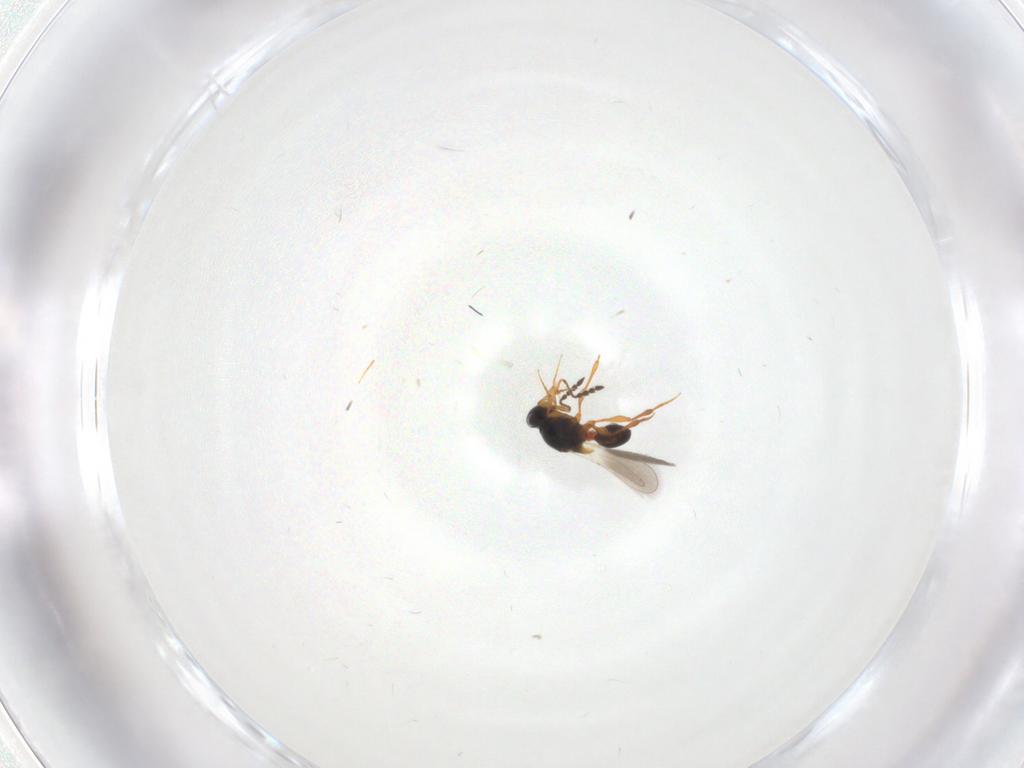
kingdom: Animalia
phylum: Arthropoda
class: Insecta
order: Hymenoptera
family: Platygastridae
